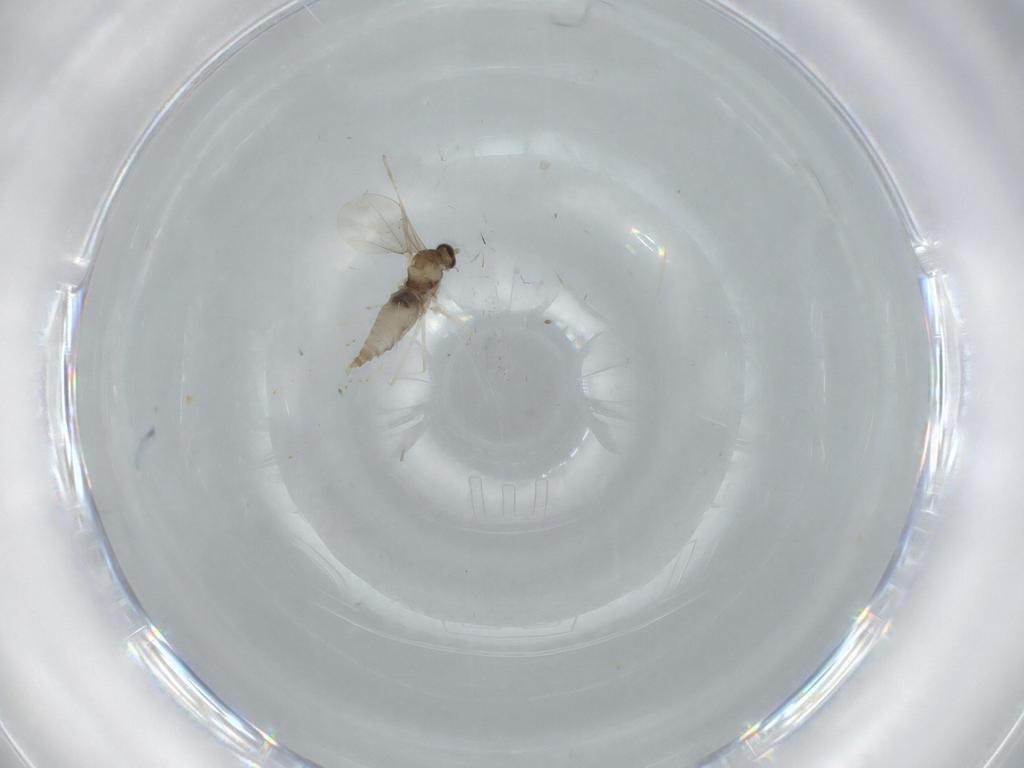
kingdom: Animalia
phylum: Arthropoda
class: Insecta
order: Diptera
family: Cecidomyiidae
